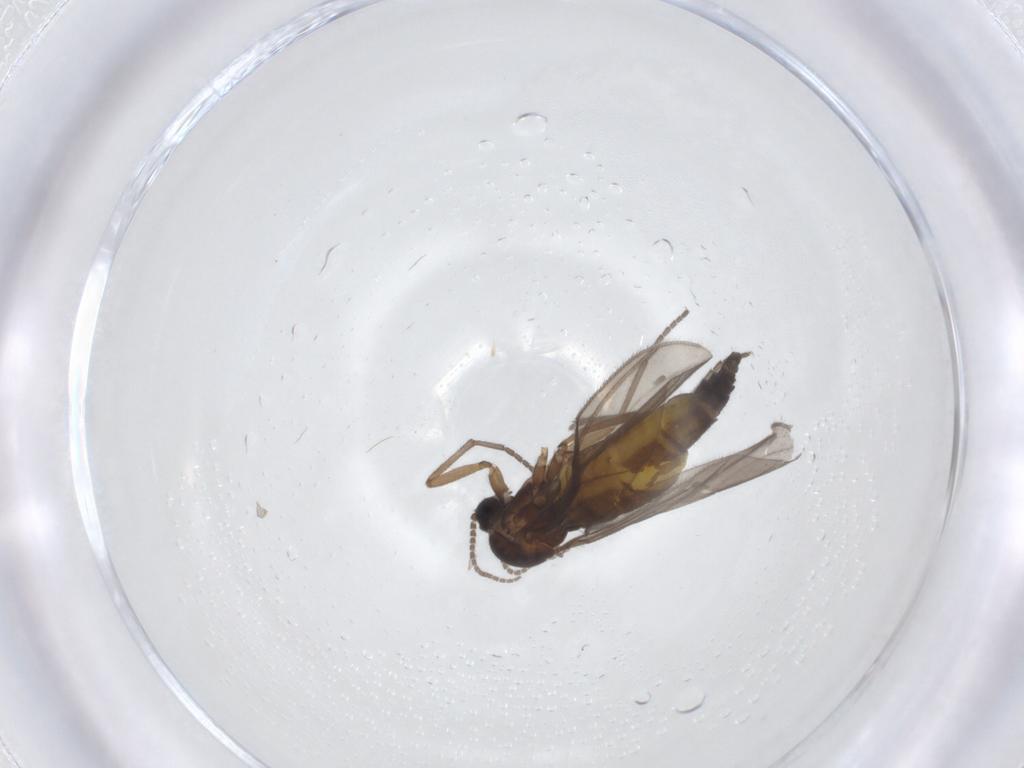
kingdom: Animalia
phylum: Arthropoda
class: Insecta
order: Diptera
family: Sciaridae
